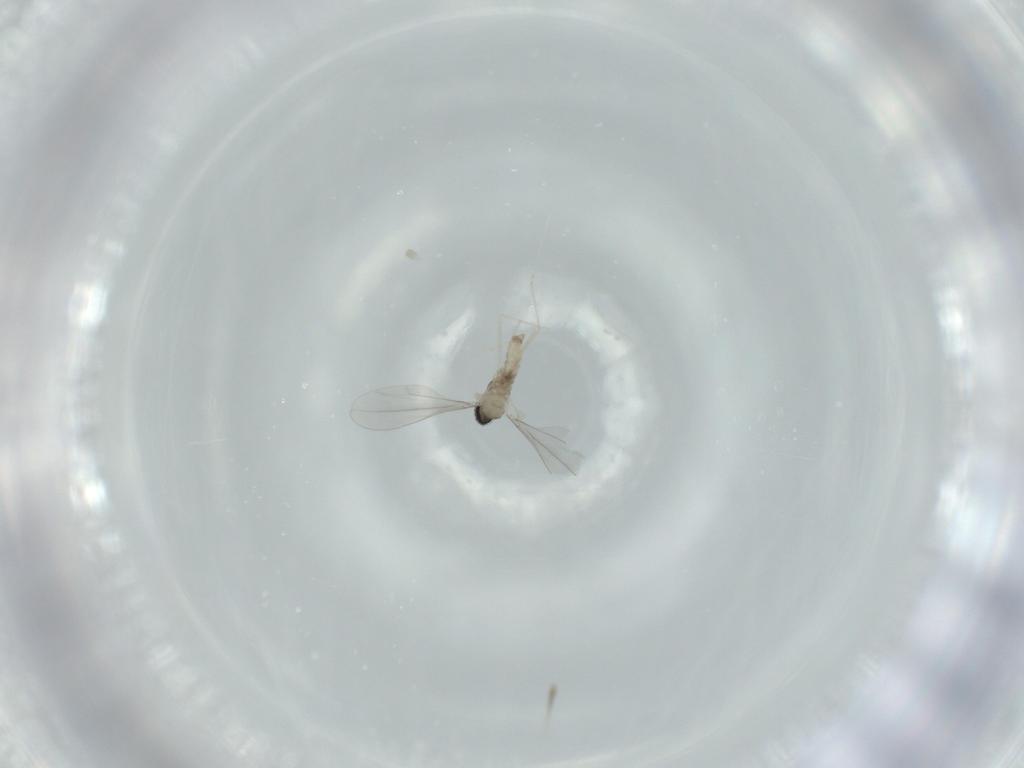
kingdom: Animalia
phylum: Arthropoda
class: Insecta
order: Diptera
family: Cecidomyiidae
